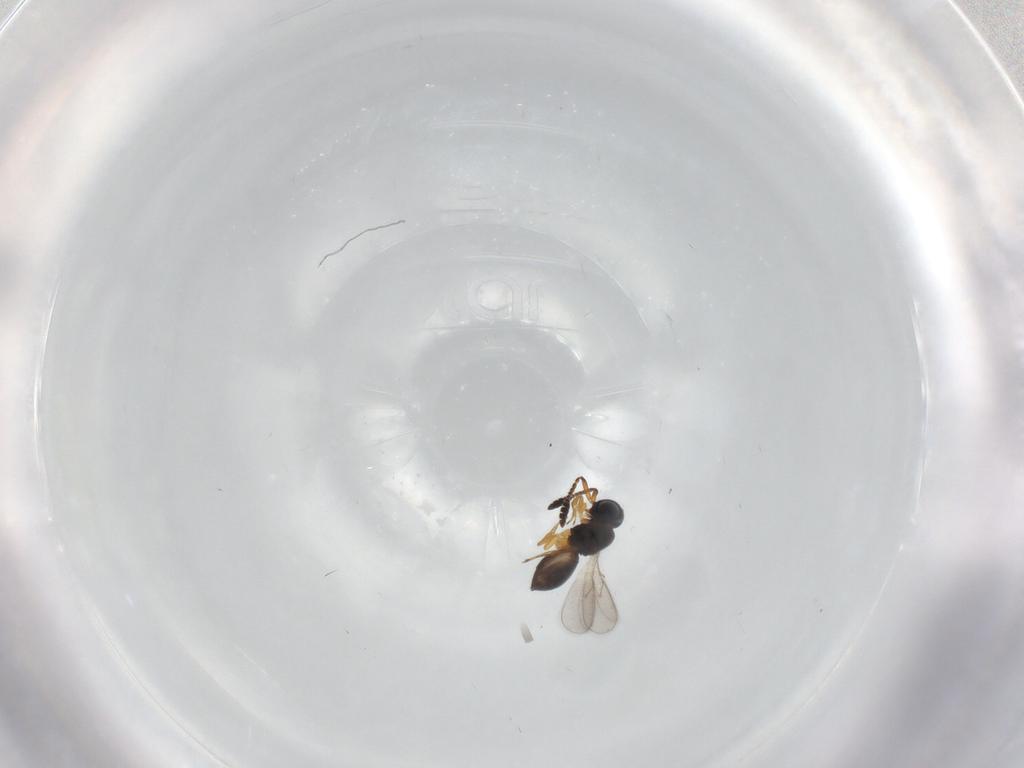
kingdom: Animalia
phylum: Arthropoda
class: Insecta
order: Hymenoptera
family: Scelionidae
